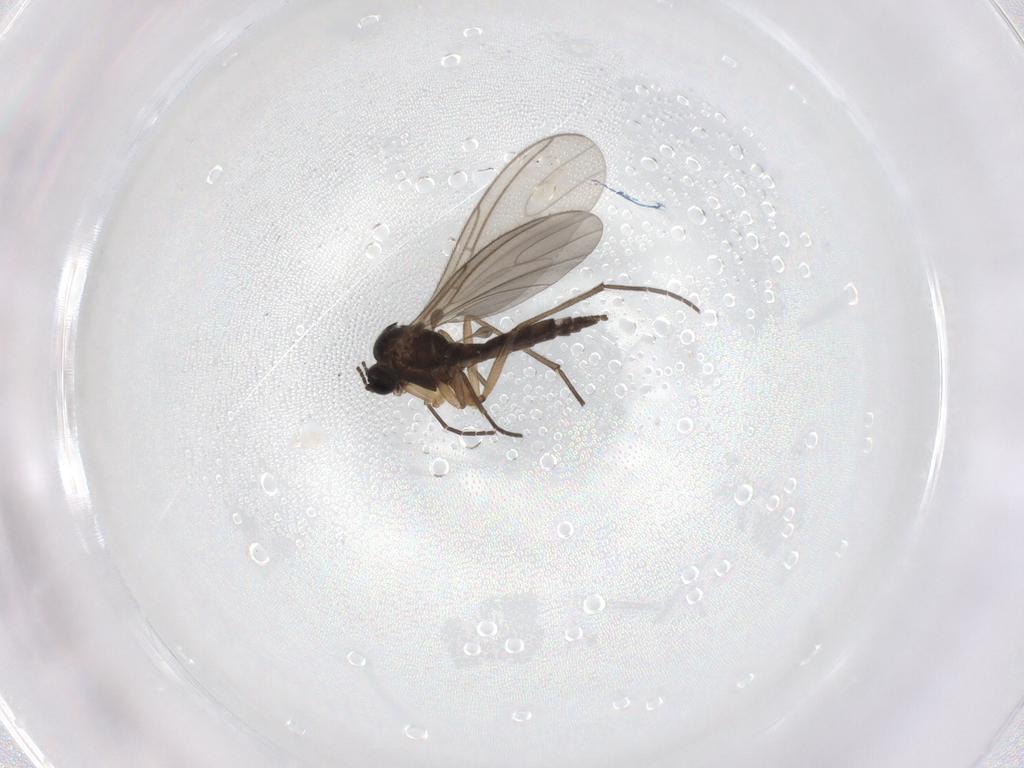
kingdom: Animalia
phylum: Arthropoda
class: Insecta
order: Diptera
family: Sciaridae
